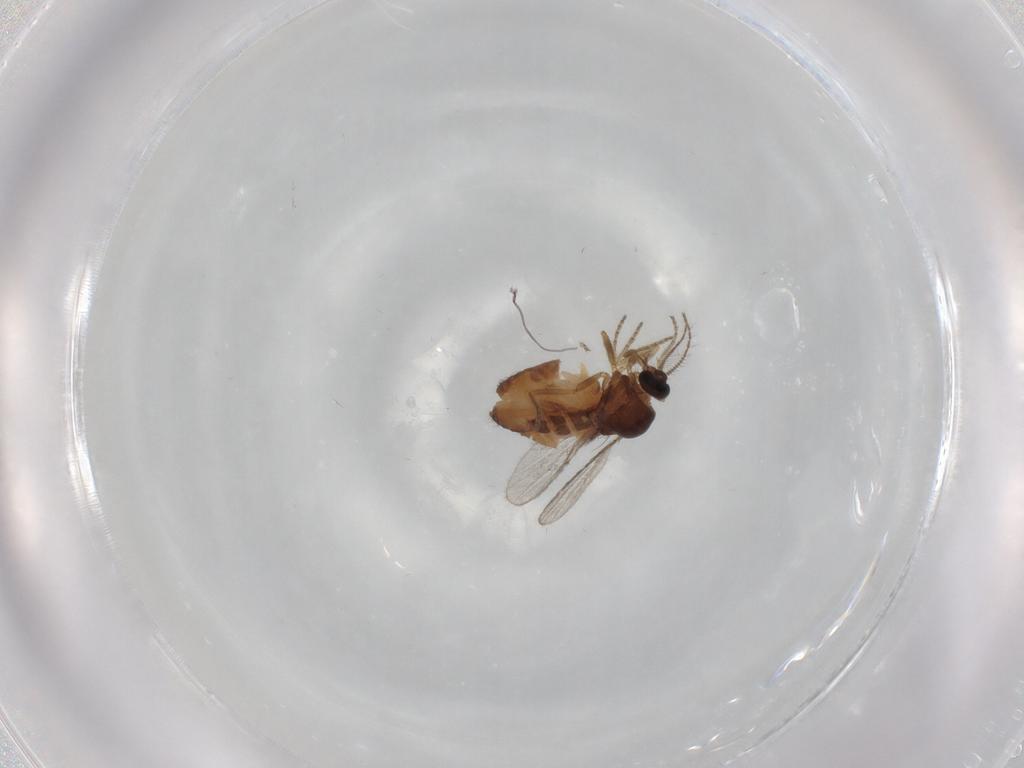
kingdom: Animalia
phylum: Arthropoda
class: Insecta
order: Diptera
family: Ceratopogonidae
